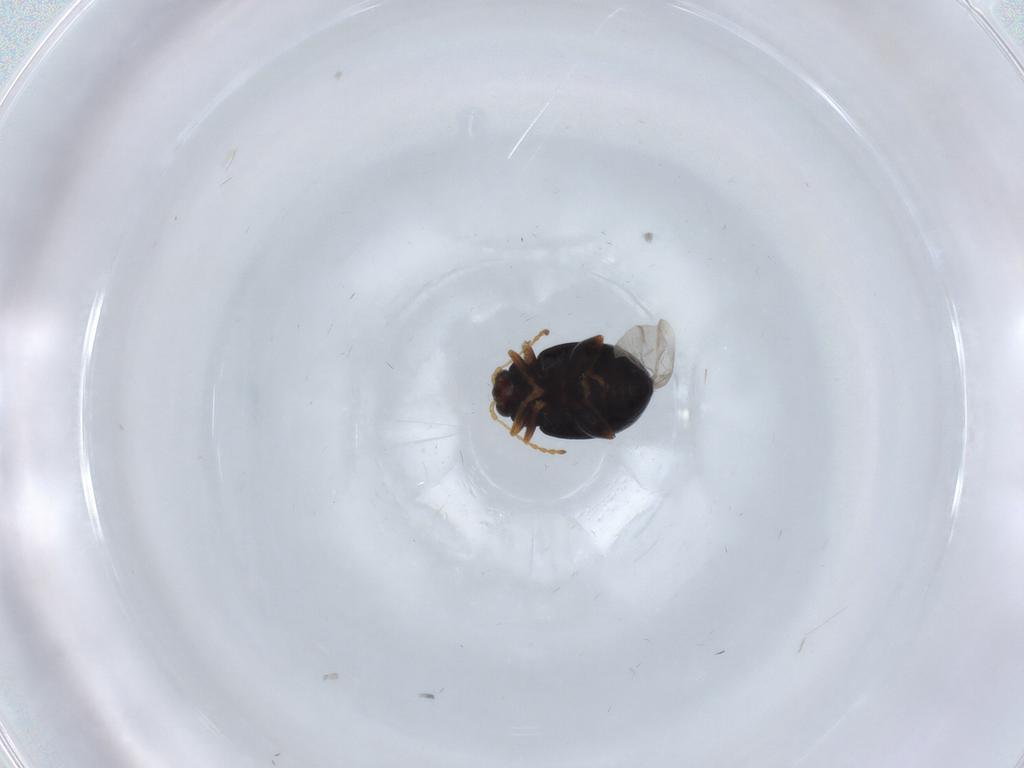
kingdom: Animalia
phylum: Arthropoda
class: Insecta
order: Coleoptera
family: Chrysomelidae
